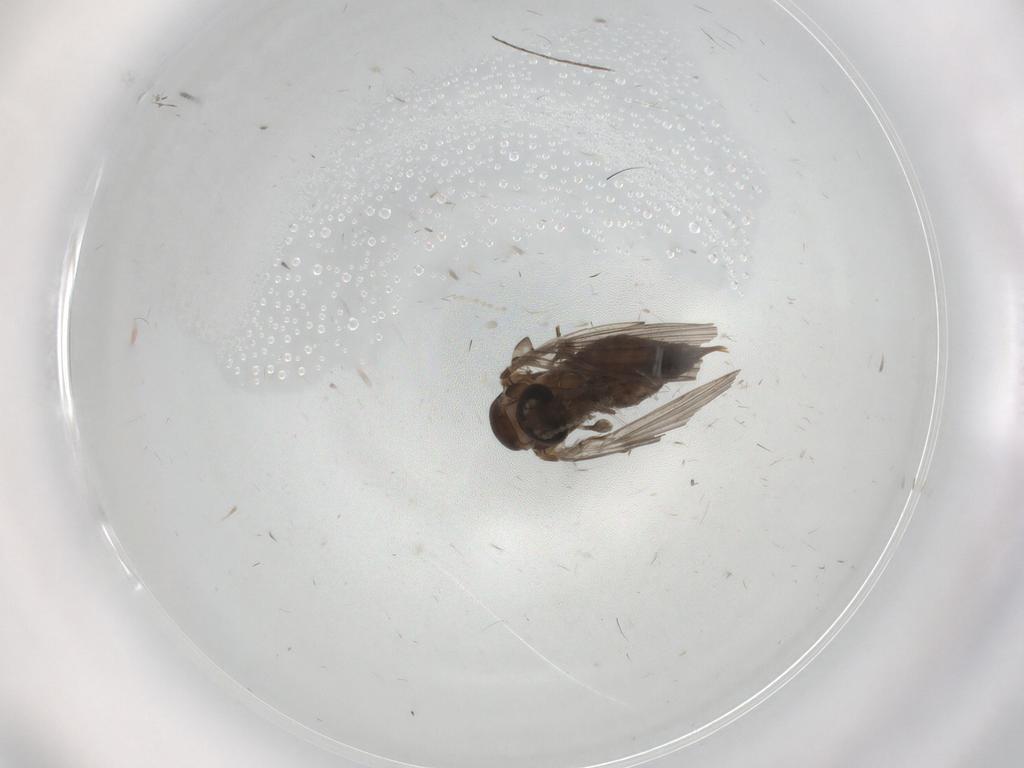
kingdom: Animalia
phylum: Arthropoda
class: Insecta
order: Diptera
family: Psychodidae
